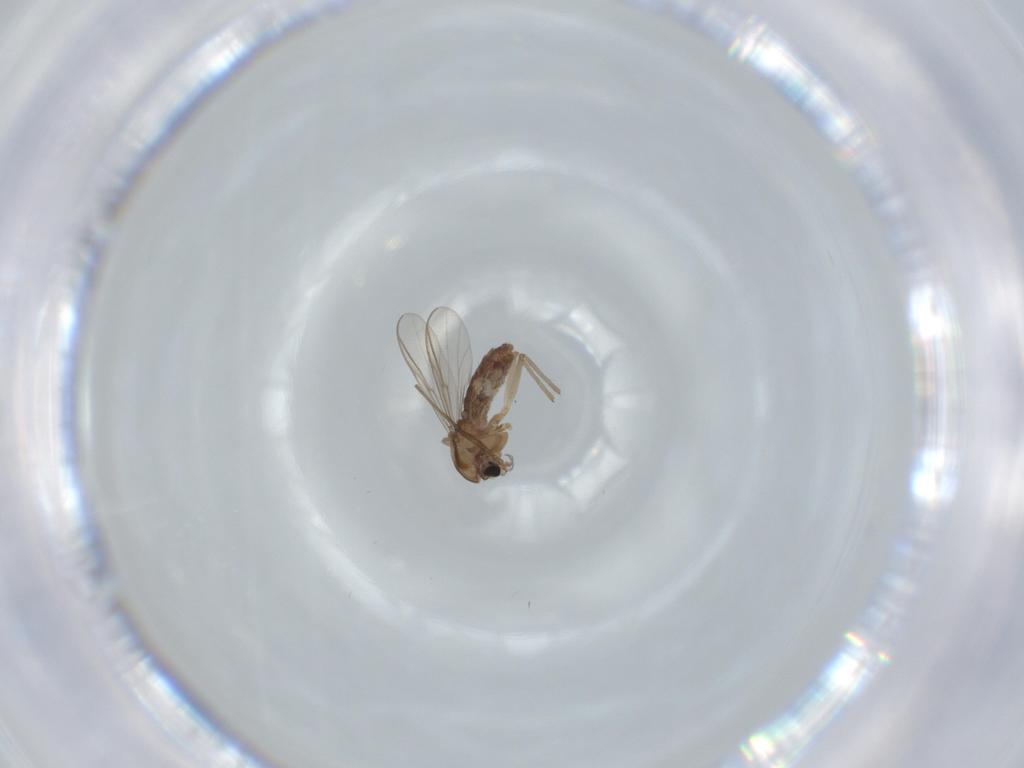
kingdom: Animalia
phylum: Arthropoda
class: Insecta
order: Diptera
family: Chironomidae
